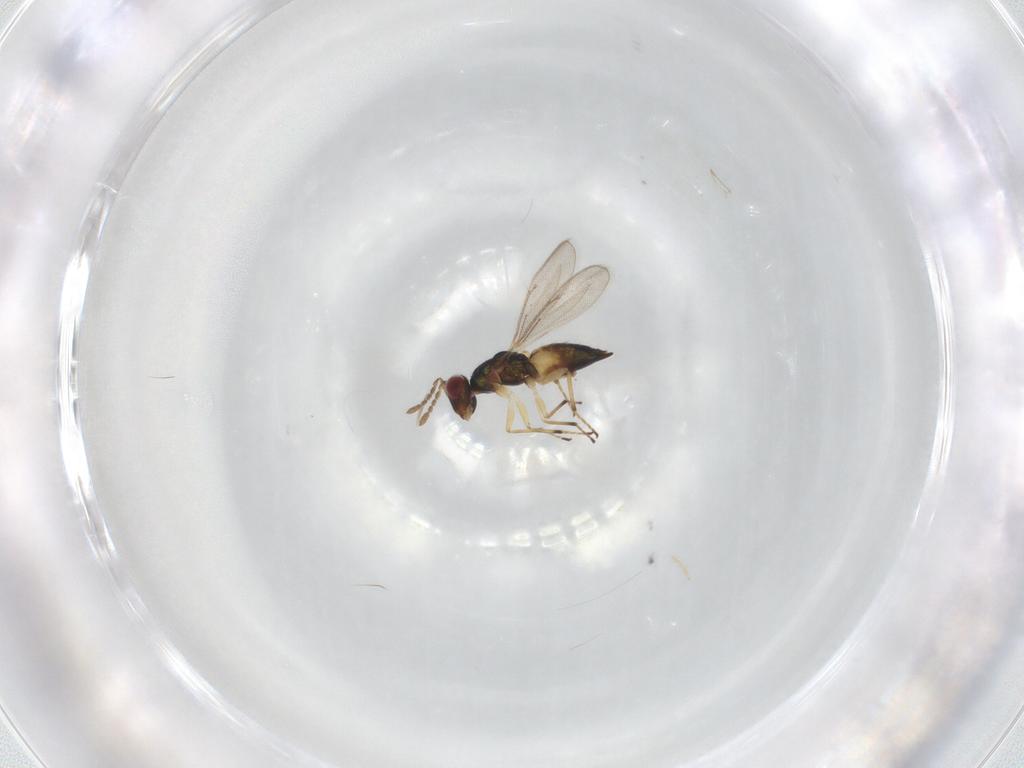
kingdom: Animalia
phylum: Arthropoda
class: Insecta
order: Hymenoptera
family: Eulophidae
